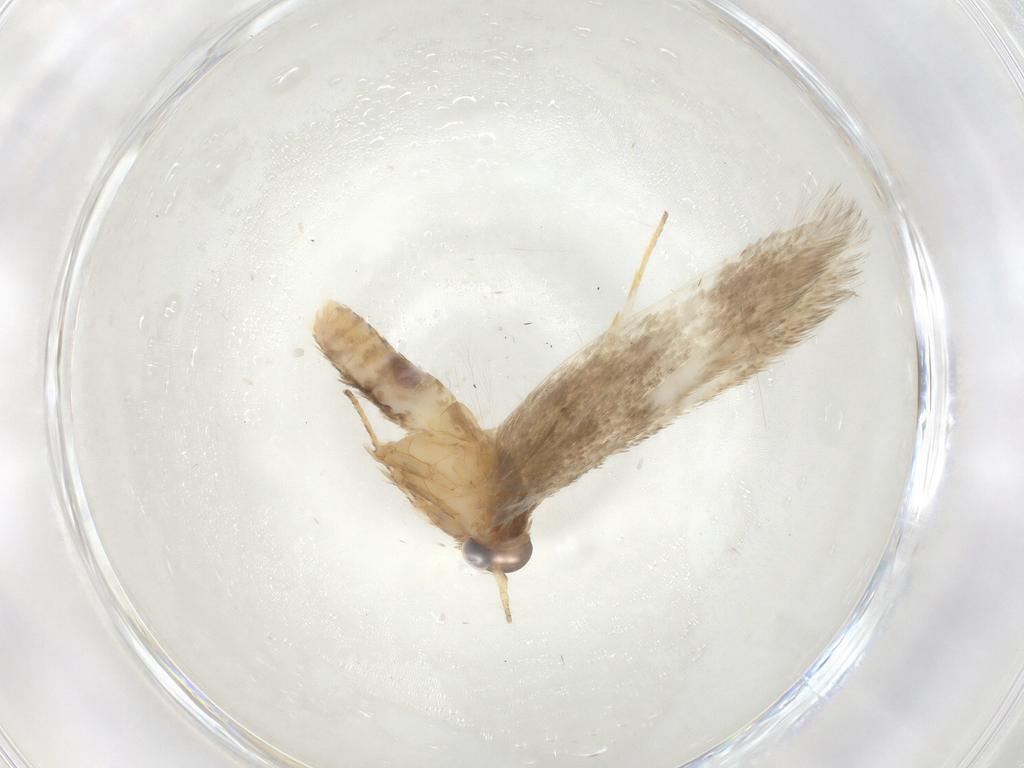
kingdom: Animalia
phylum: Arthropoda
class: Insecta
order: Lepidoptera
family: Blastobasidae
